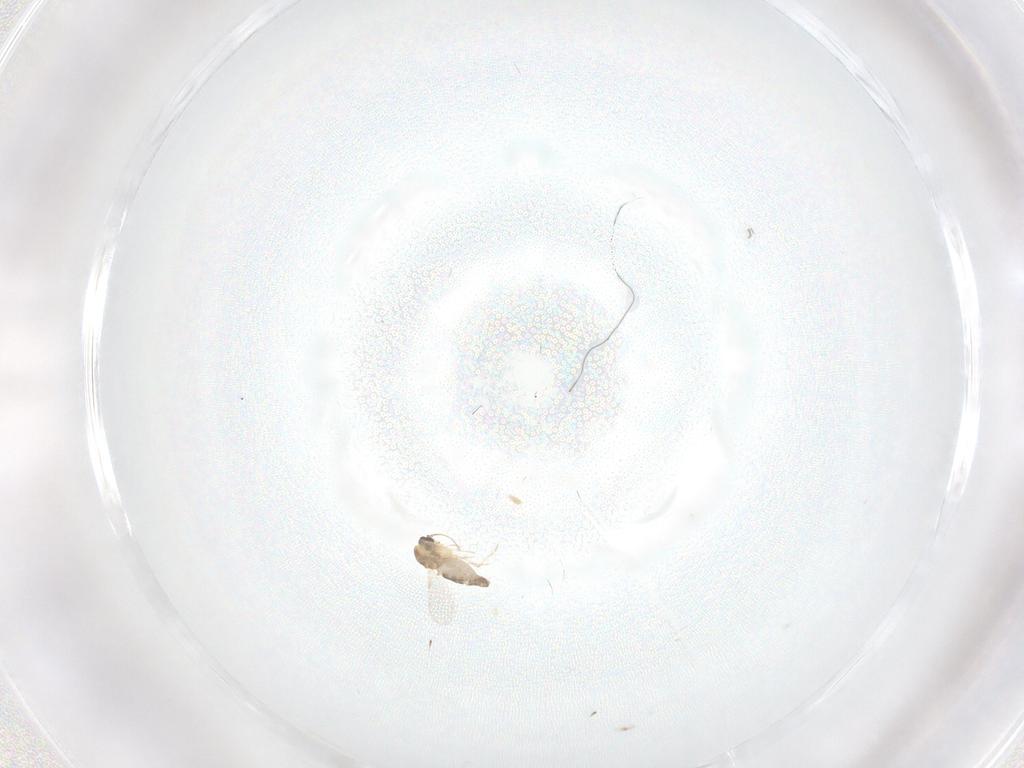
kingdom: Animalia
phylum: Arthropoda
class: Insecta
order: Diptera
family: Ceratopogonidae
